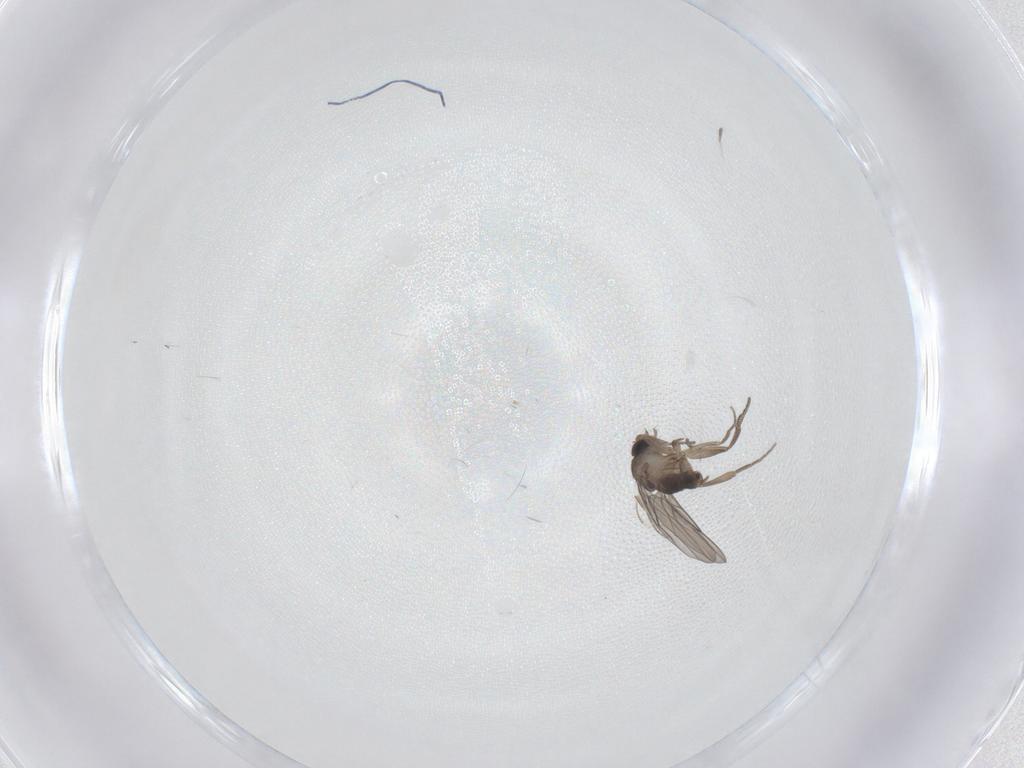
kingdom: Animalia
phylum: Arthropoda
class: Insecta
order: Diptera
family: Phoridae
